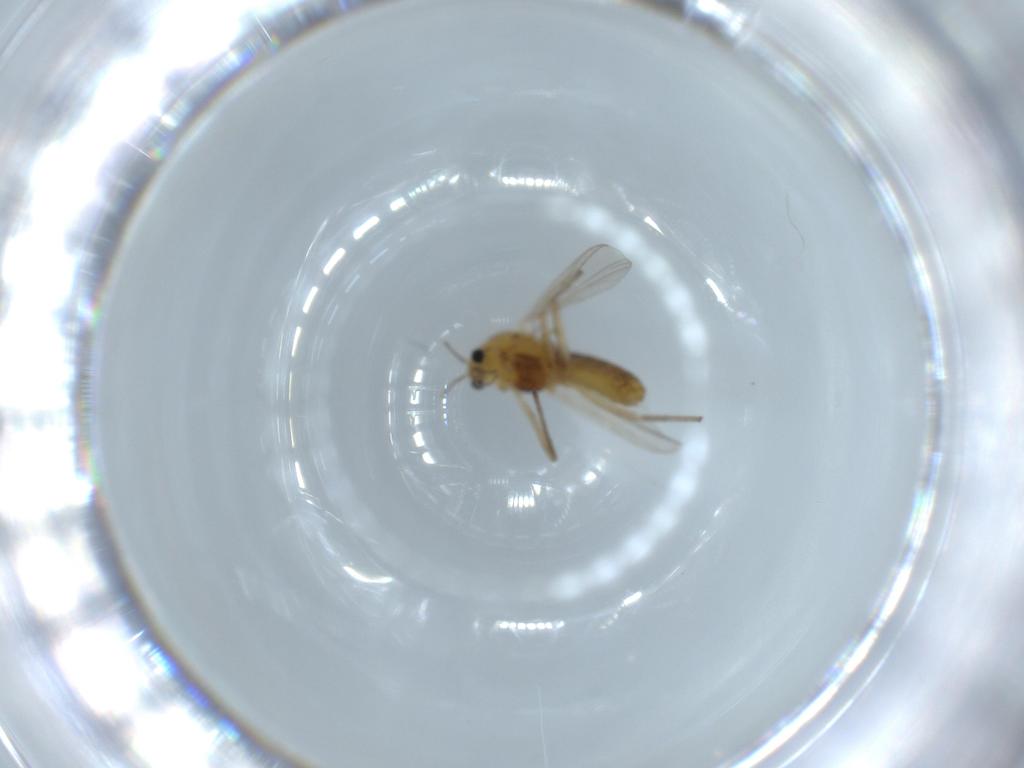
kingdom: Animalia
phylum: Arthropoda
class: Insecta
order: Diptera
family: Chironomidae
